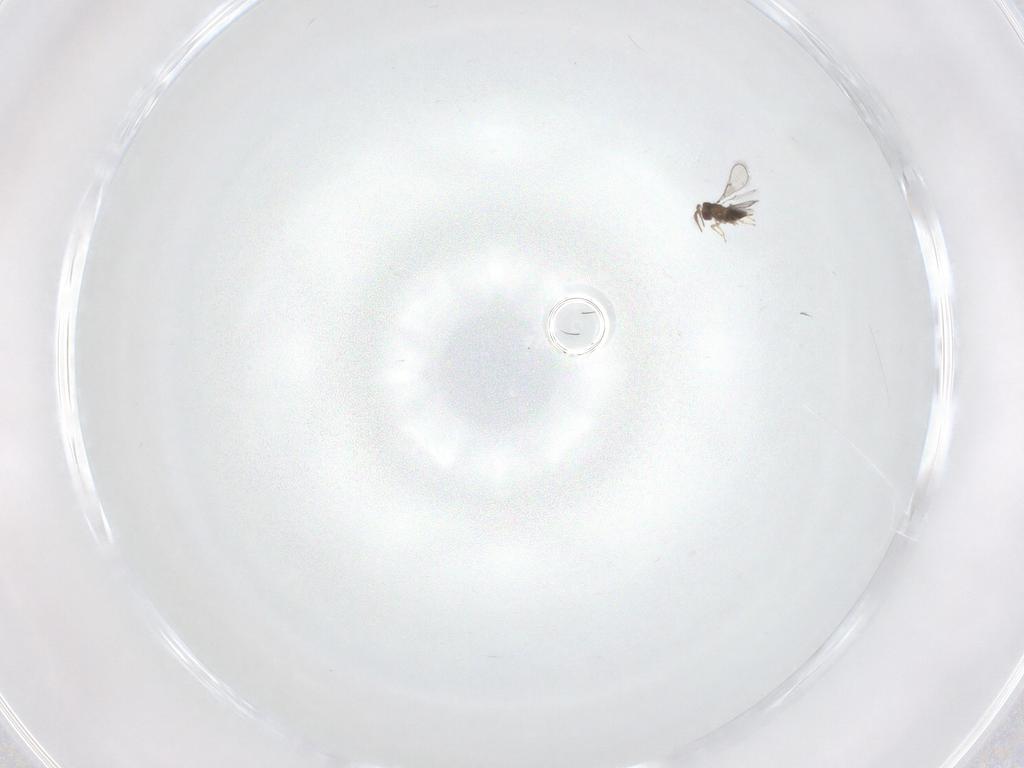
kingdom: Animalia
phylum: Arthropoda
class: Insecta
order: Hymenoptera
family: Trichogrammatidae
